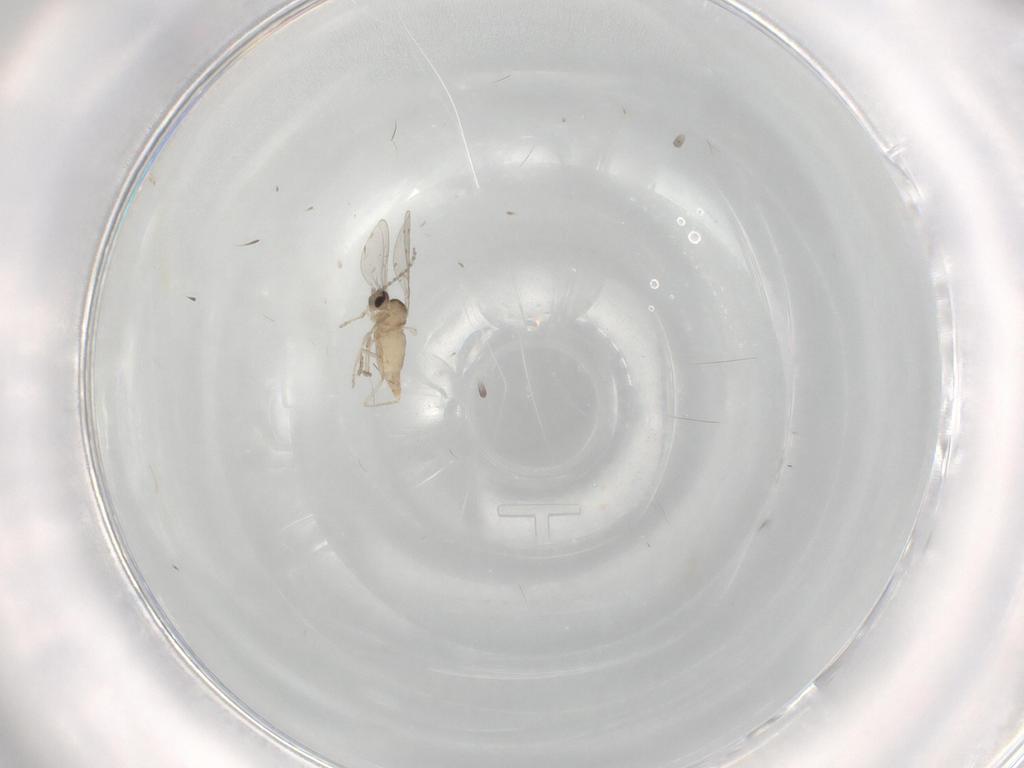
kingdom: Animalia
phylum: Arthropoda
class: Insecta
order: Diptera
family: Cecidomyiidae
